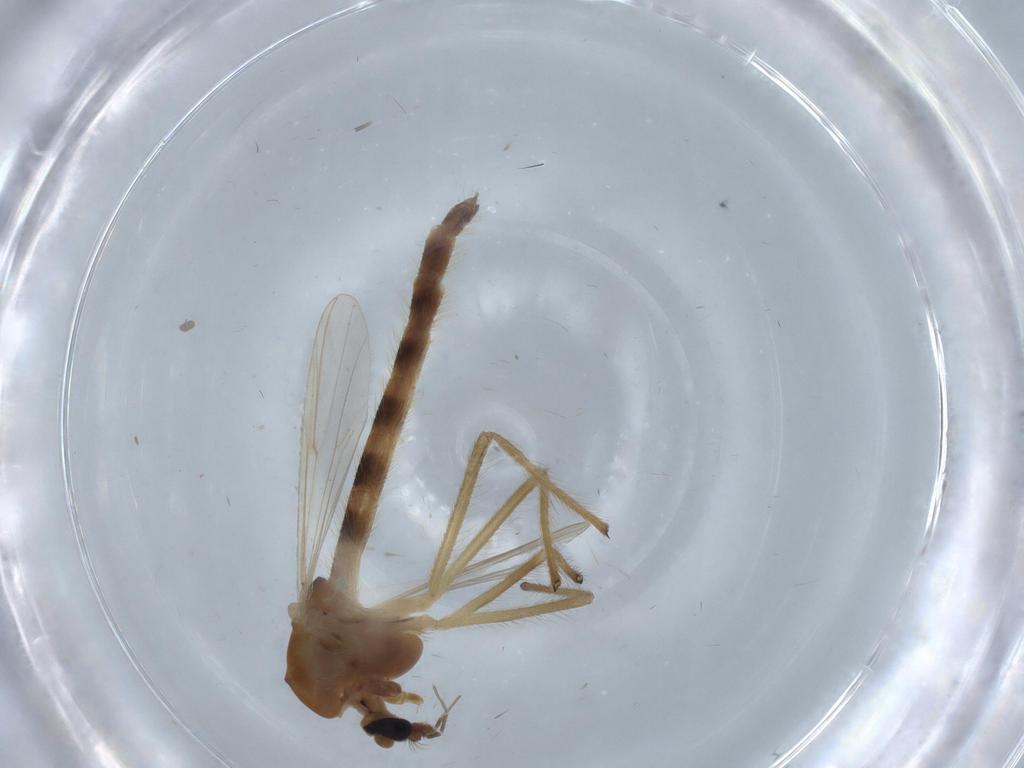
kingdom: Animalia
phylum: Arthropoda
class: Insecta
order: Diptera
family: Chironomidae
